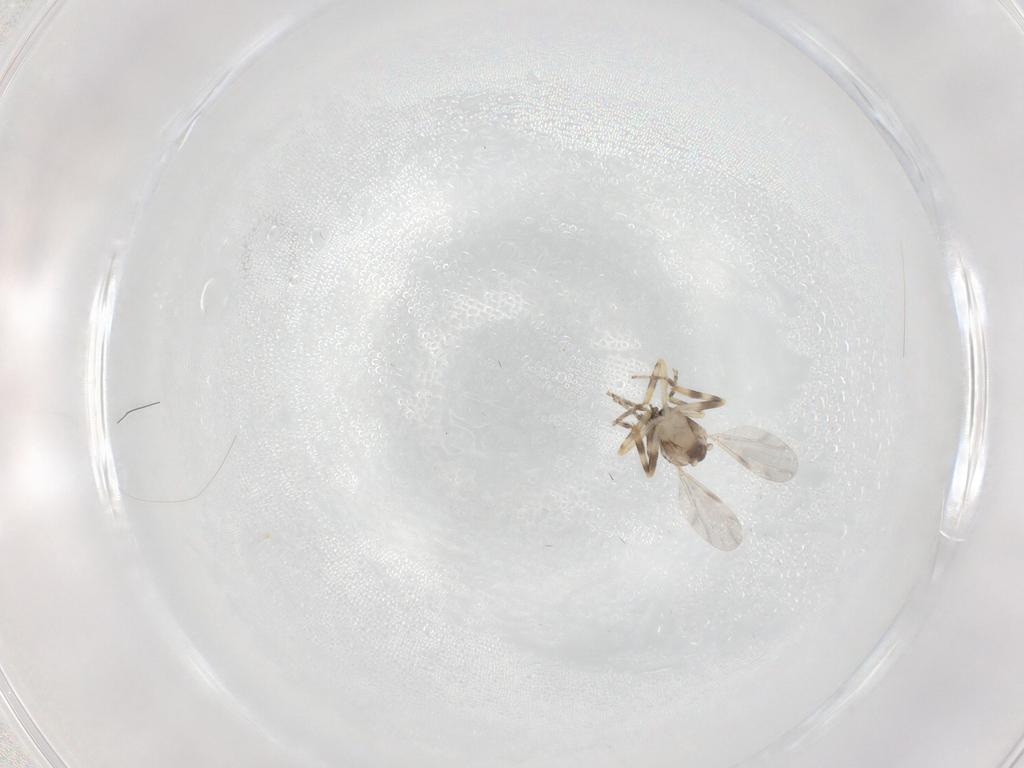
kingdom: Animalia
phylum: Arthropoda
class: Insecta
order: Diptera
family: Ceratopogonidae
